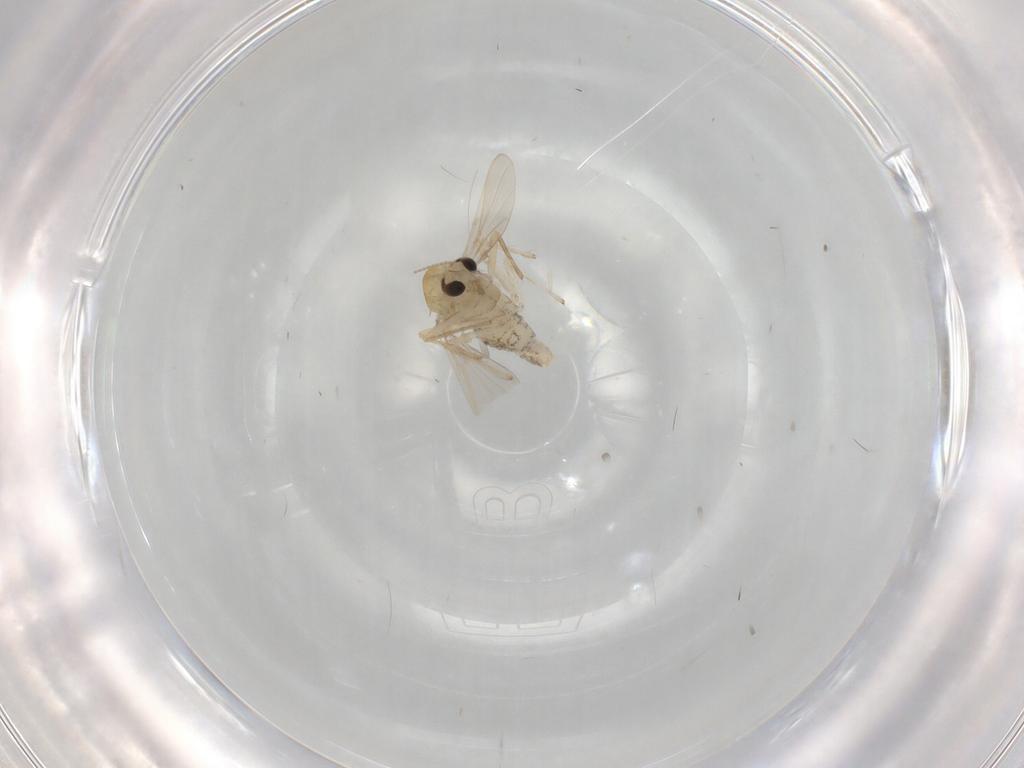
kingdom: Animalia
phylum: Arthropoda
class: Insecta
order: Diptera
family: Chironomidae
